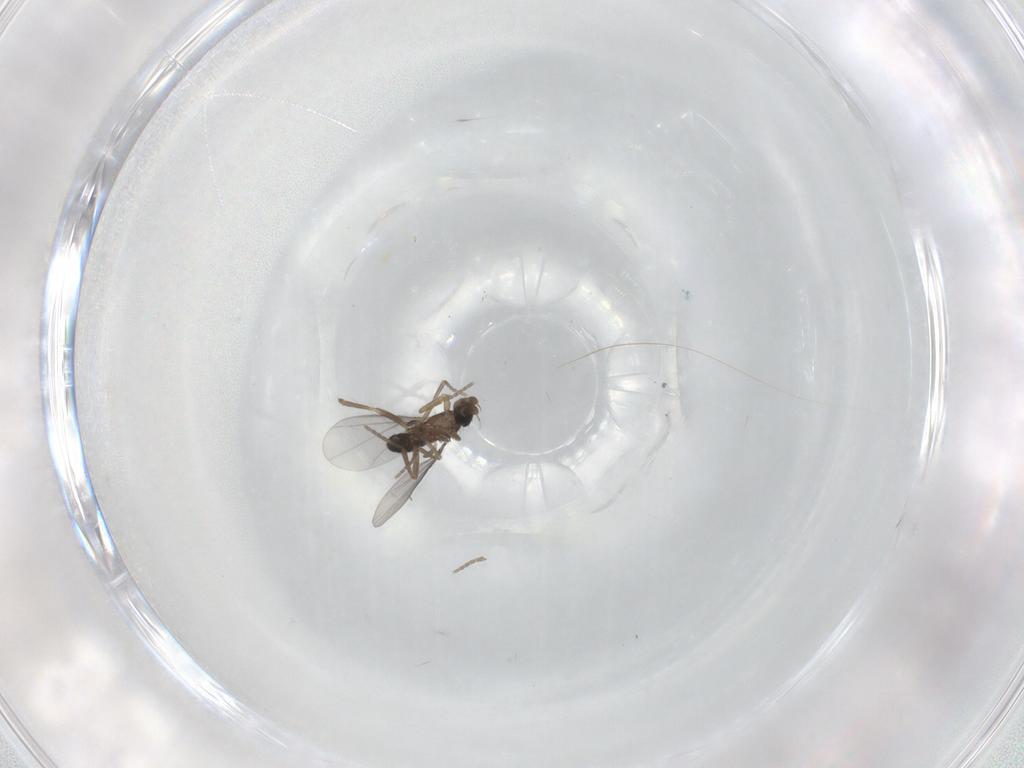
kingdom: Animalia
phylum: Arthropoda
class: Insecta
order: Diptera
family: Phoridae
